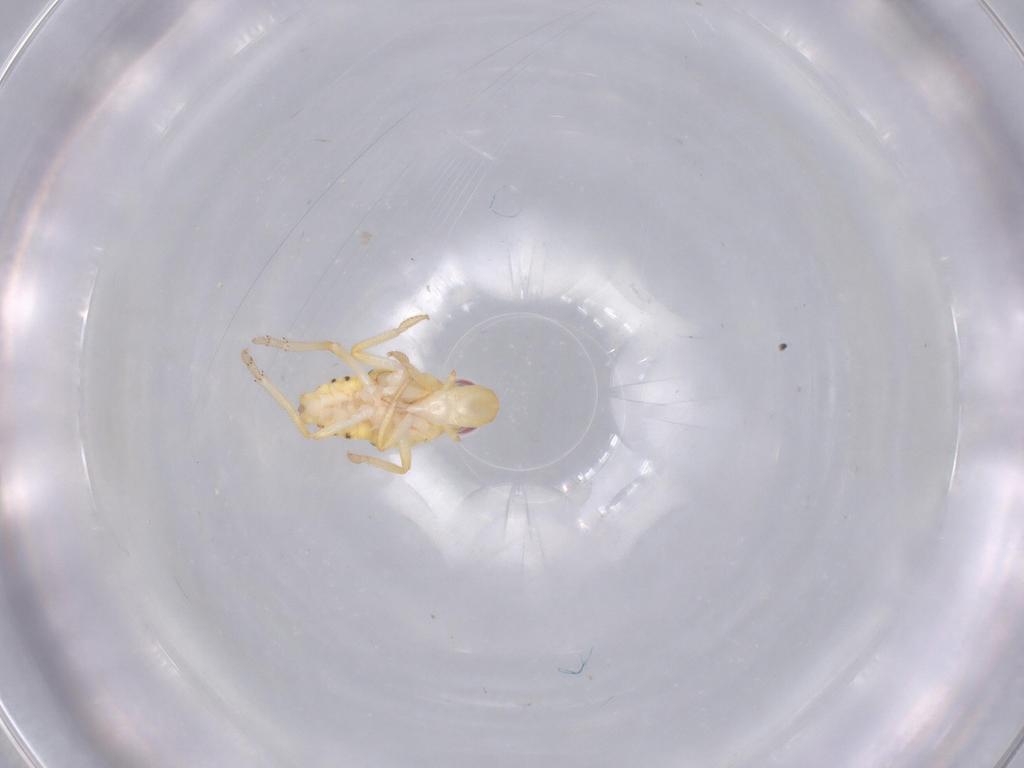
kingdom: Animalia
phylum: Arthropoda
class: Insecta
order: Hemiptera
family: Tropiduchidae
